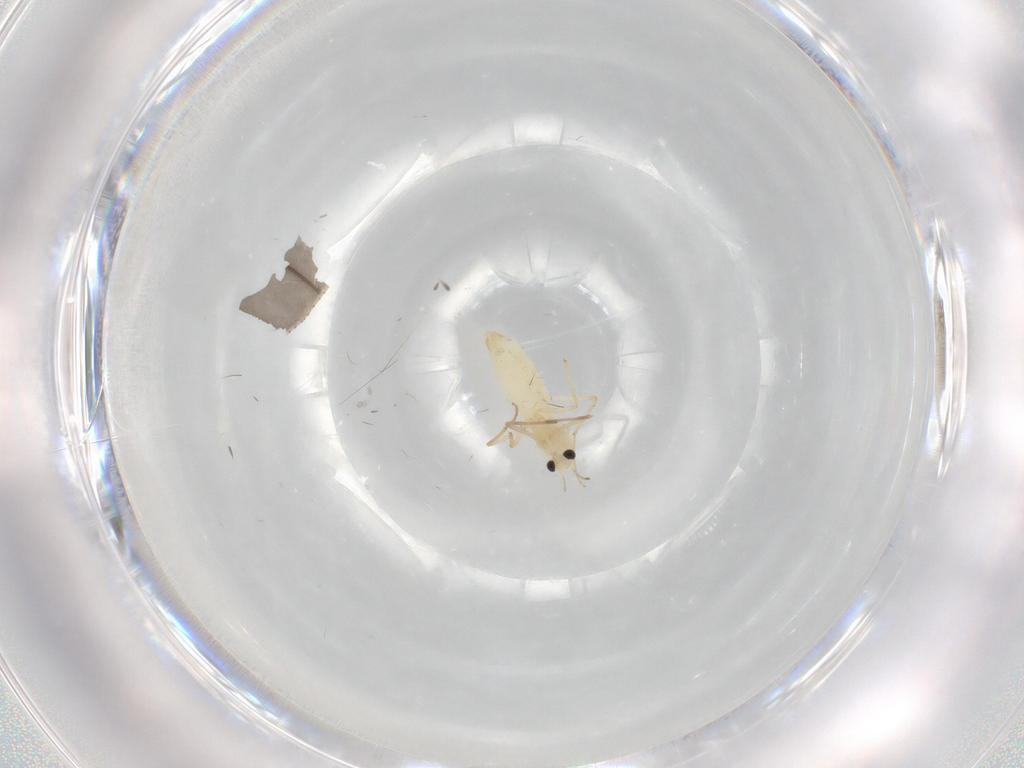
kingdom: Animalia
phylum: Arthropoda
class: Insecta
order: Diptera
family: Chironomidae
